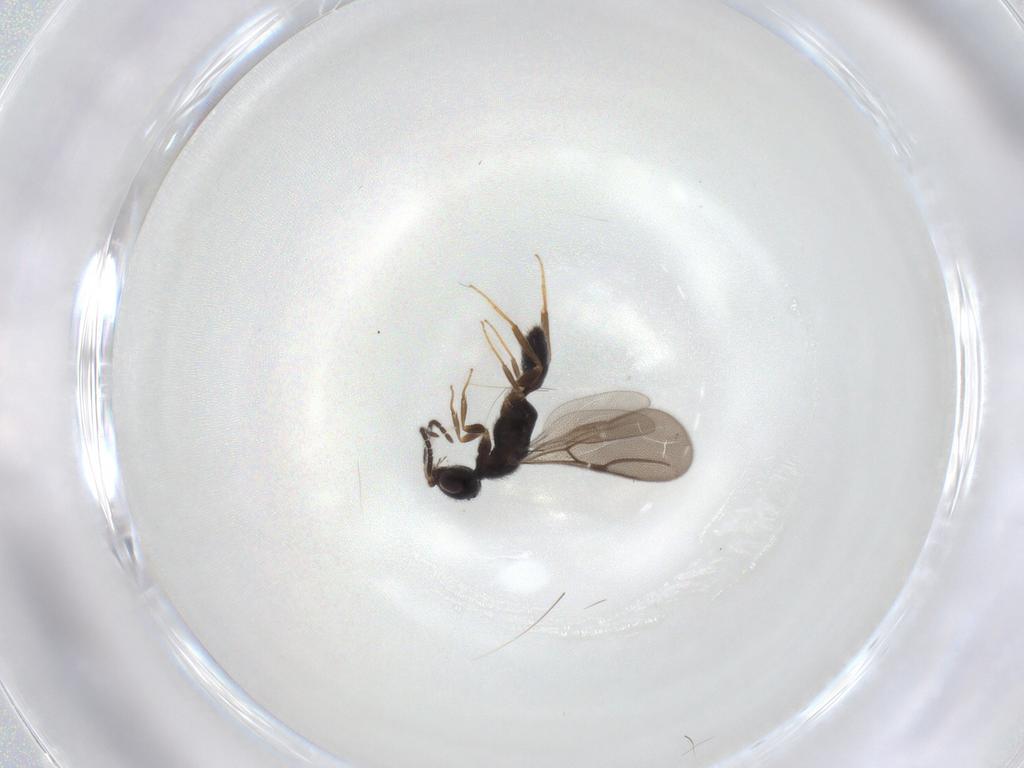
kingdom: Animalia
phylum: Arthropoda
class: Insecta
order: Hymenoptera
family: Bethylidae
